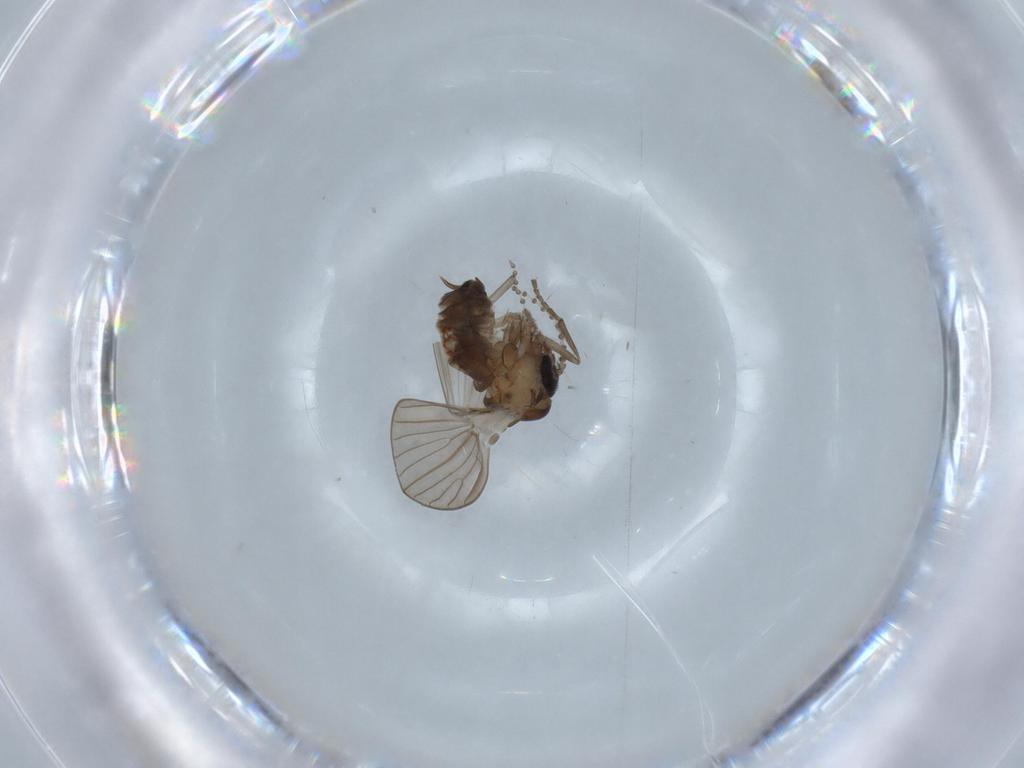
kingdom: Animalia
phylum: Arthropoda
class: Insecta
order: Diptera
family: Psychodidae
